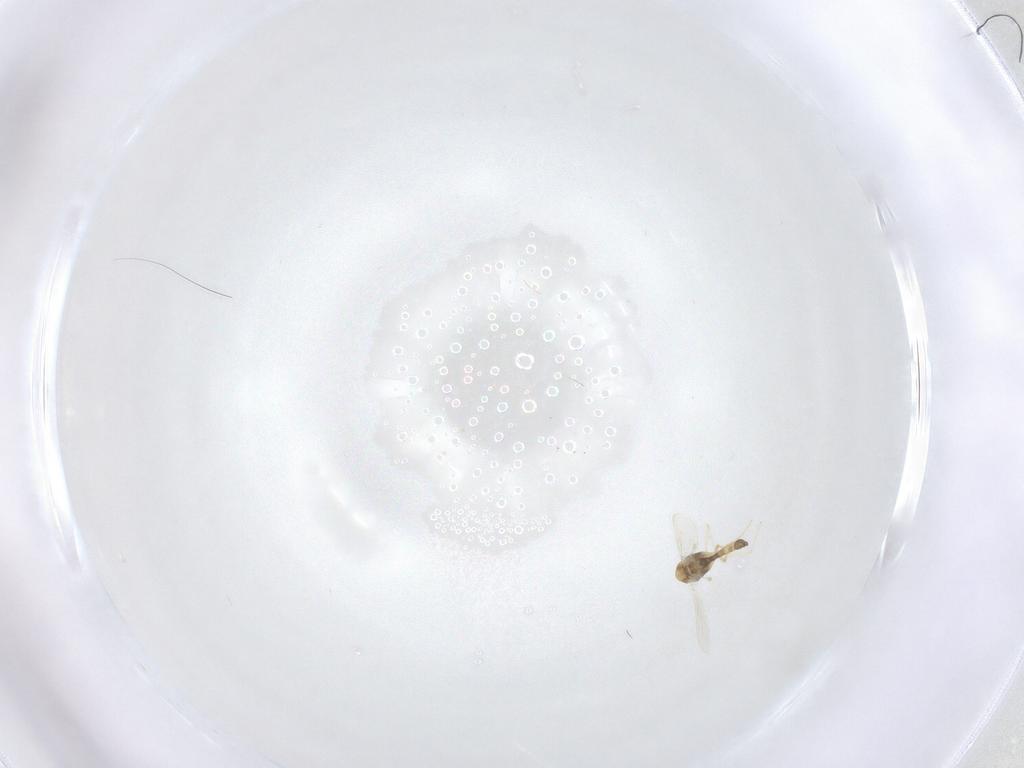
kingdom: Animalia
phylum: Arthropoda
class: Insecta
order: Diptera
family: Chironomidae
